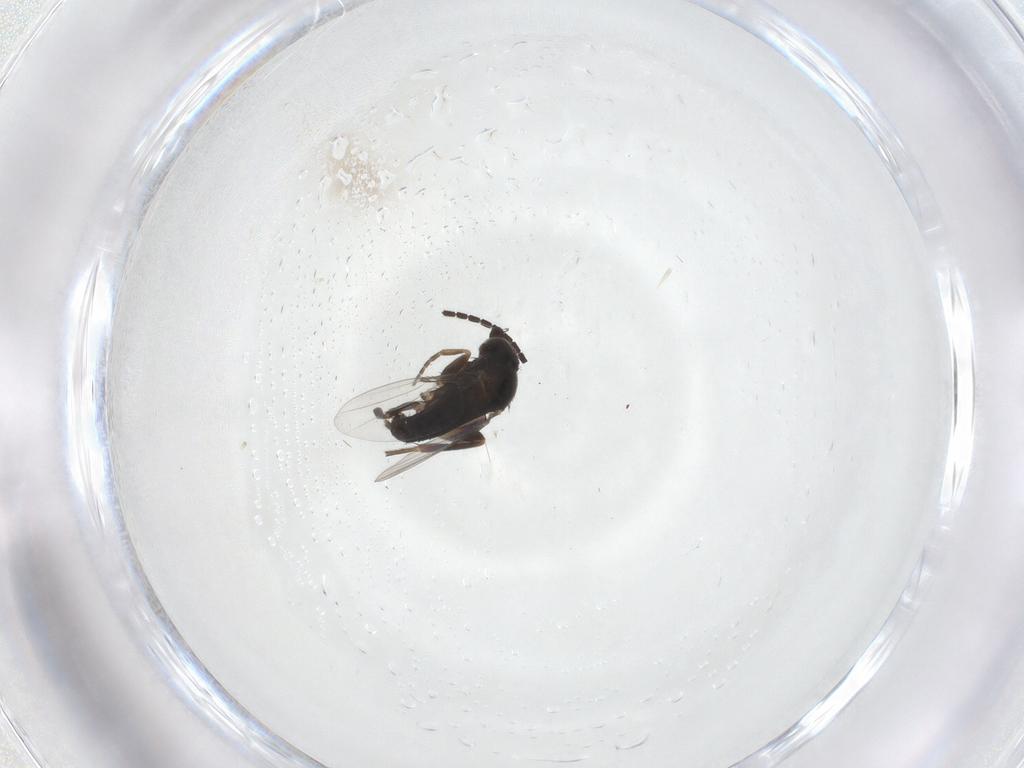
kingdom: Animalia
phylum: Arthropoda
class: Insecta
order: Diptera
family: Phoridae
